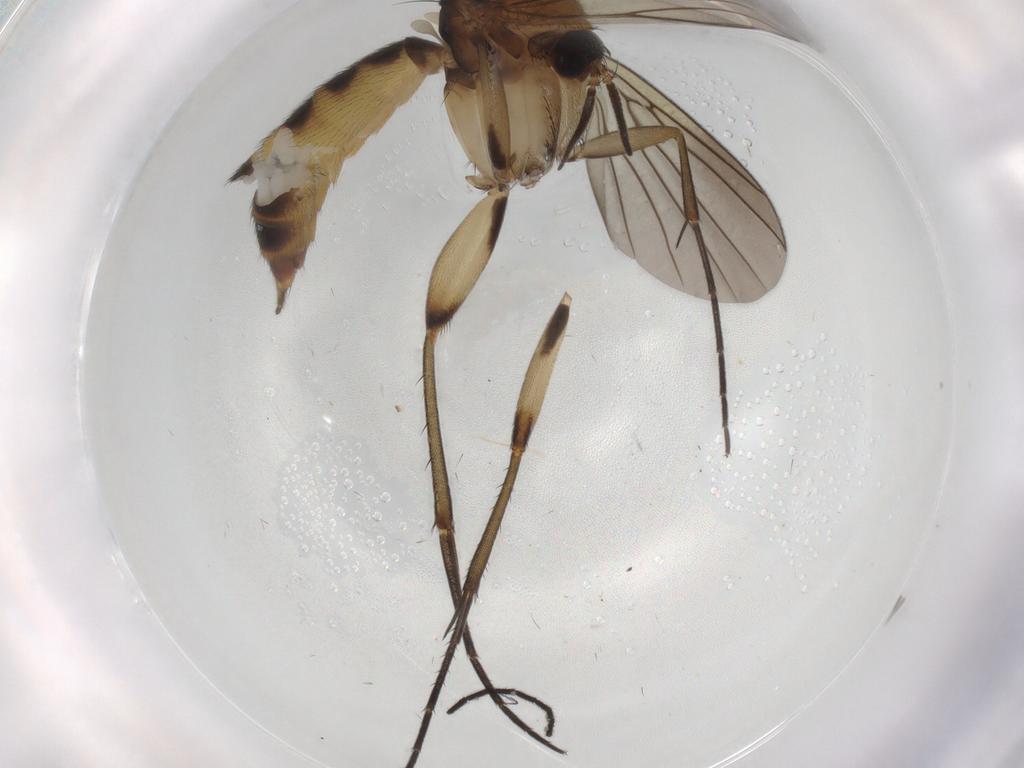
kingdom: Animalia
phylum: Arthropoda
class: Insecta
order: Diptera
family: Mycetophilidae
